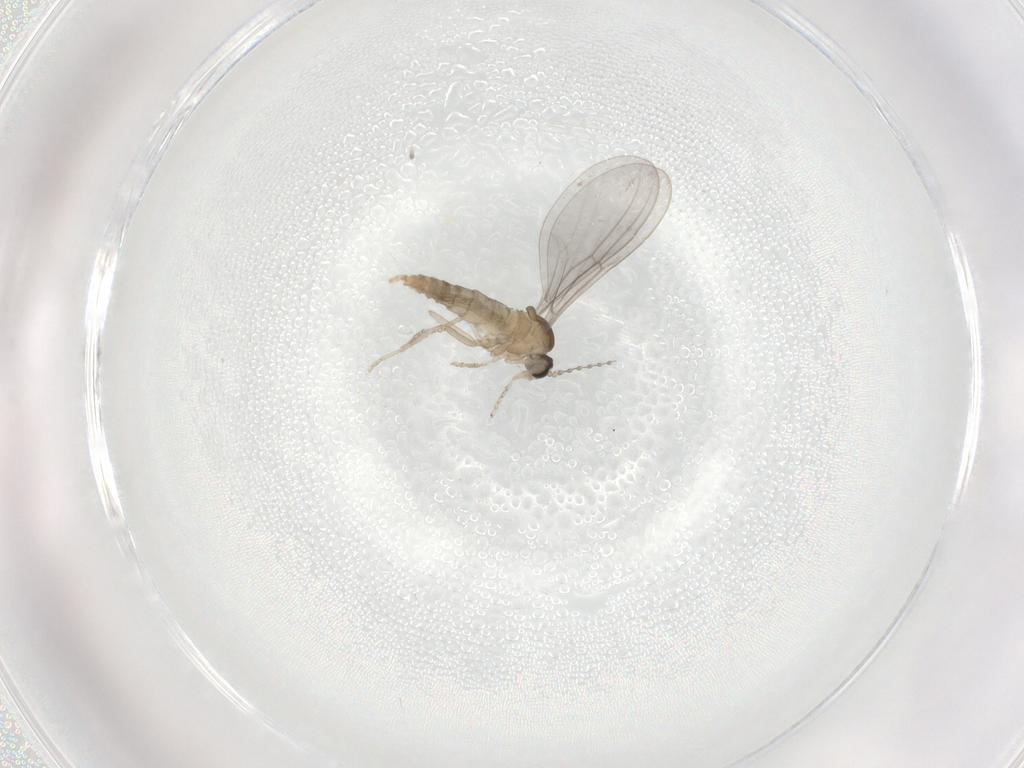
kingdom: Animalia
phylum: Arthropoda
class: Insecta
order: Diptera
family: Cecidomyiidae
